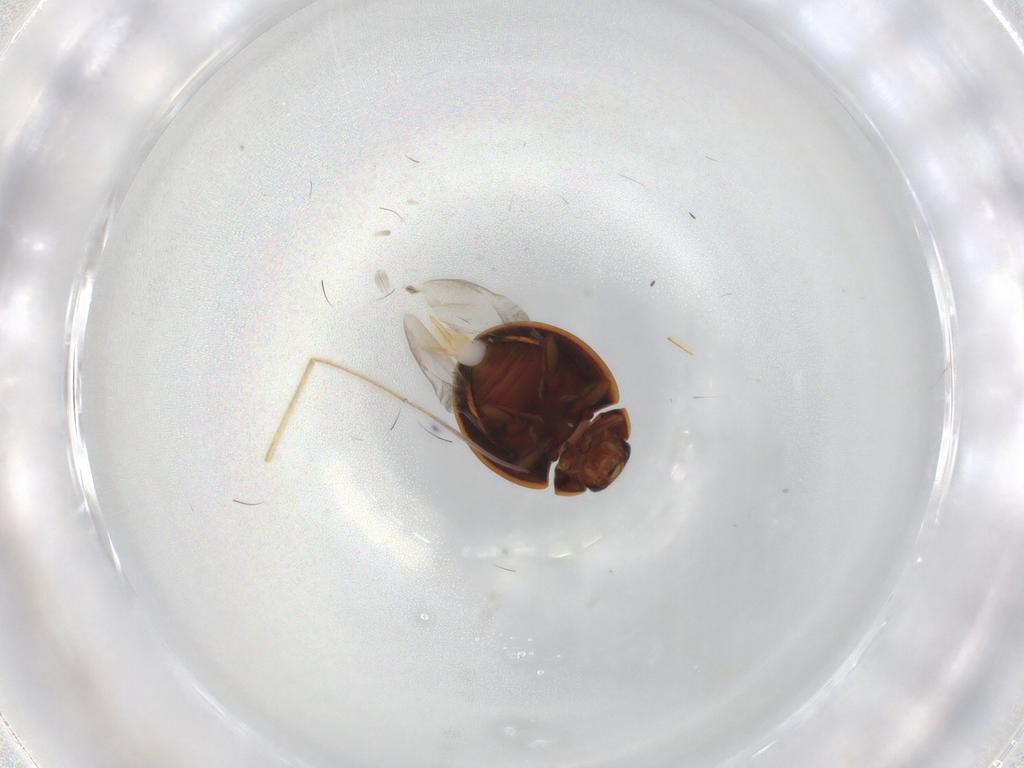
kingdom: Animalia
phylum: Arthropoda
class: Insecta
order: Coleoptera
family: Coccinellidae
